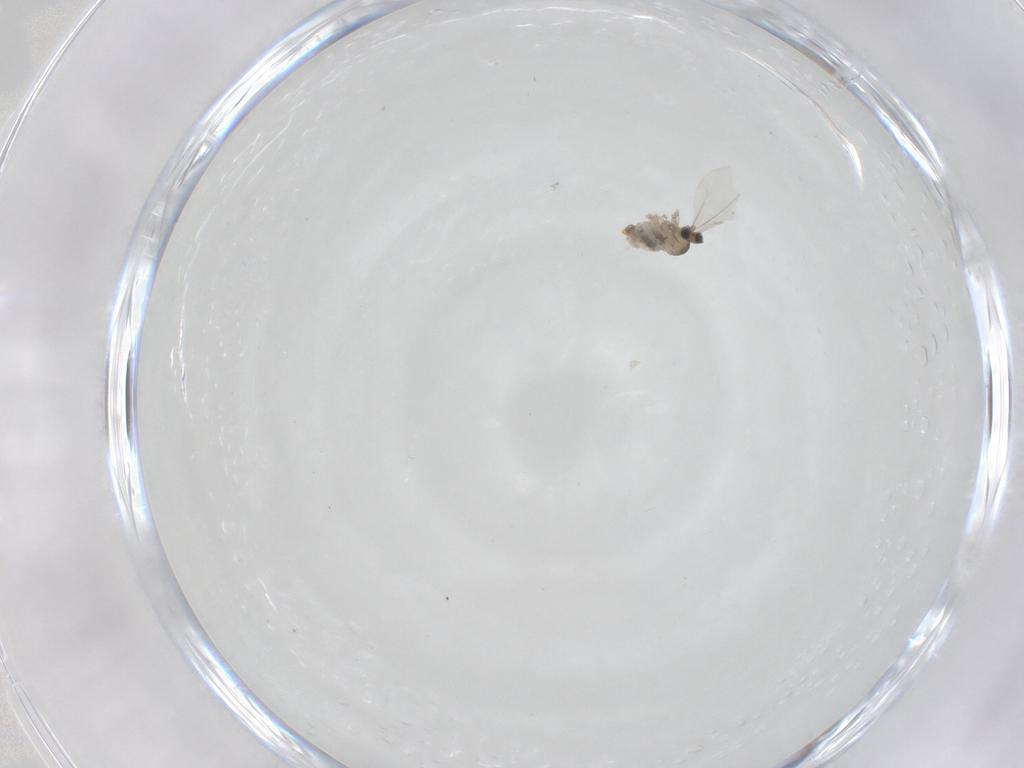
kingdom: Animalia
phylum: Arthropoda
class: Insecta
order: Diptera
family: Cecidomyiidae
